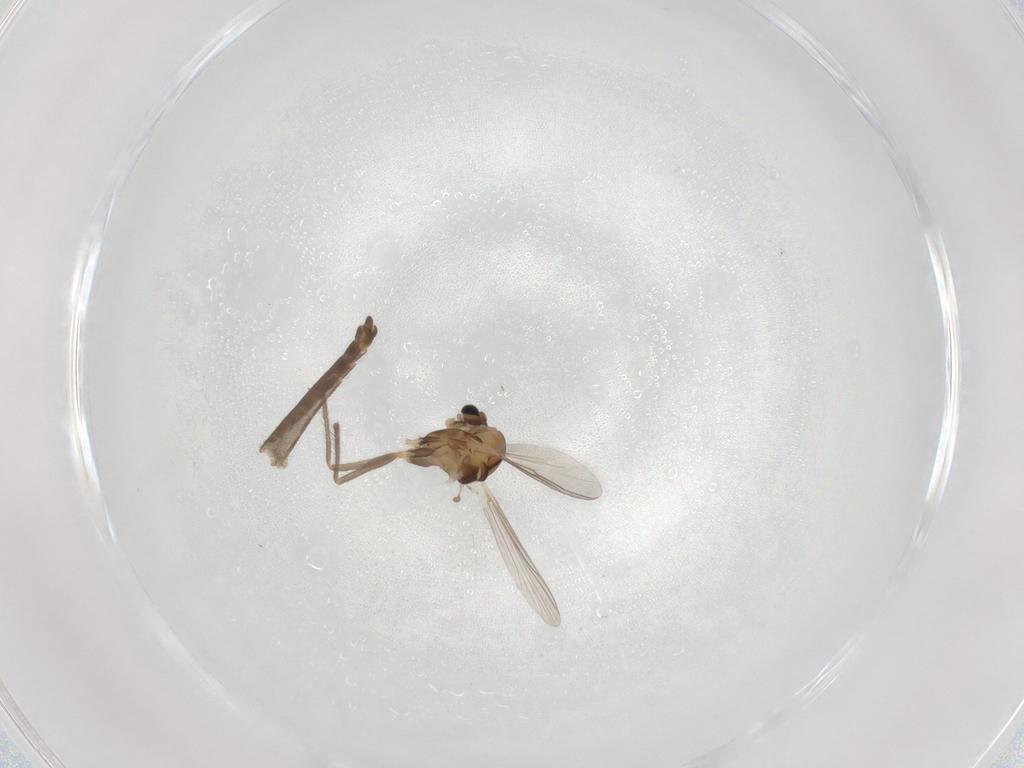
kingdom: Animalia
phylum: Arthropoda
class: Insecta
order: Diptera
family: Chironomidae
